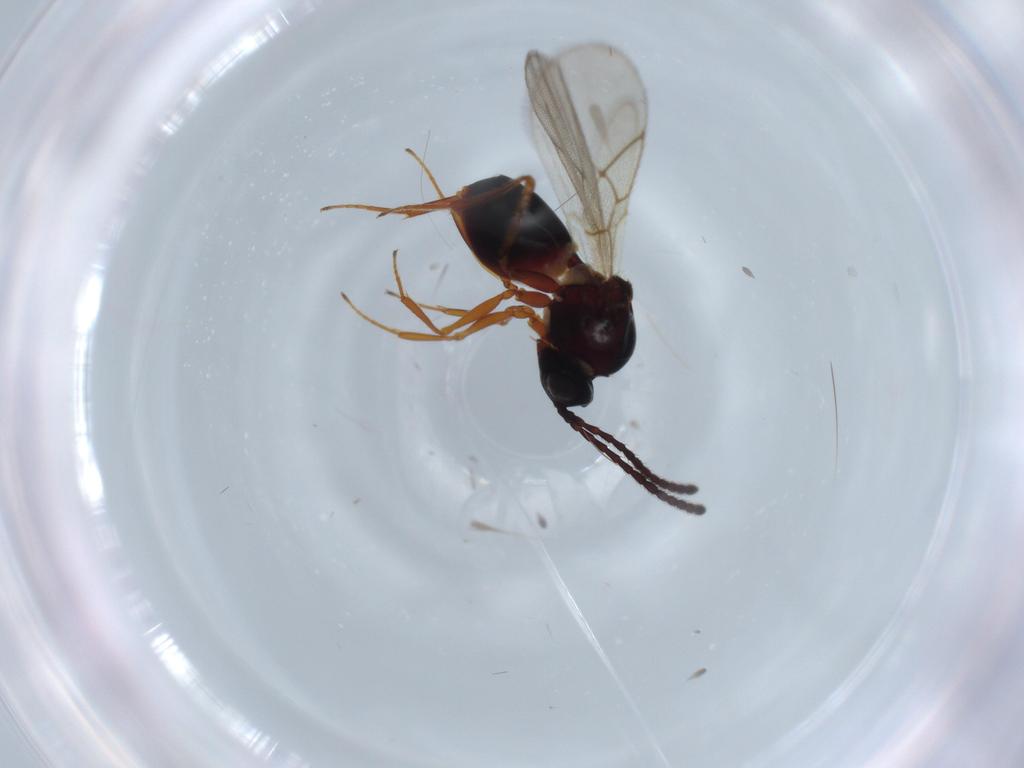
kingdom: Animalia
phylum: Arthropoda
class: Insecta
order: Hymenoptera
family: Figitidae
